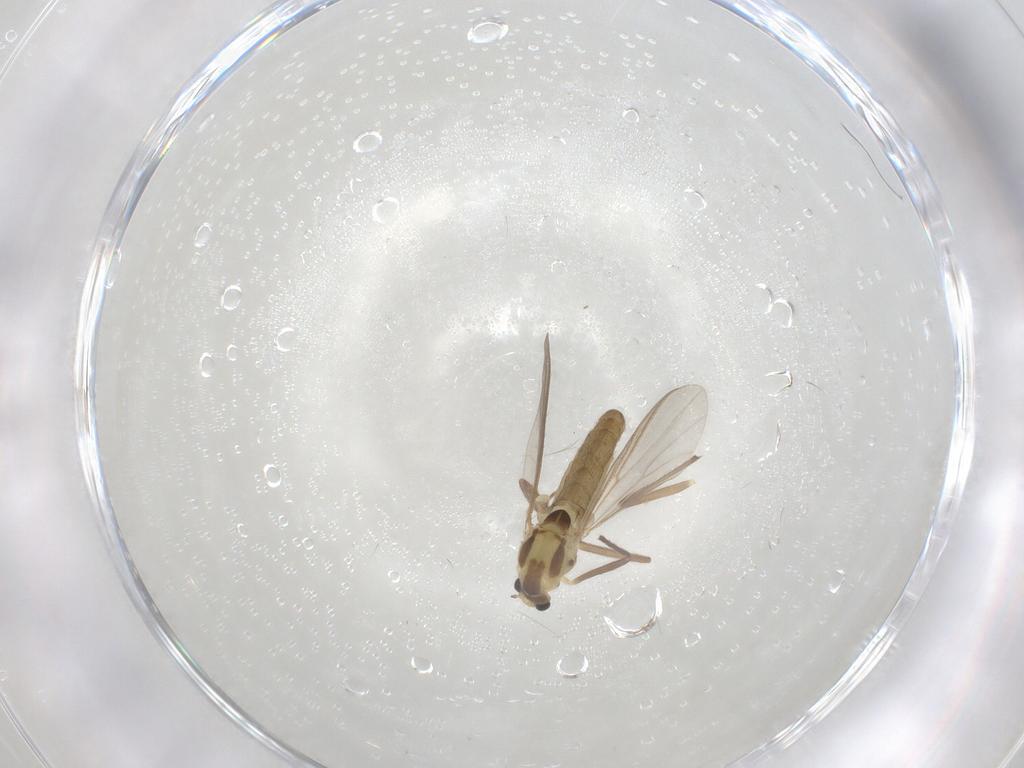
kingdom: Animalia
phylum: Arthropoda
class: Insecta
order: Diptera
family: Chironomidae
